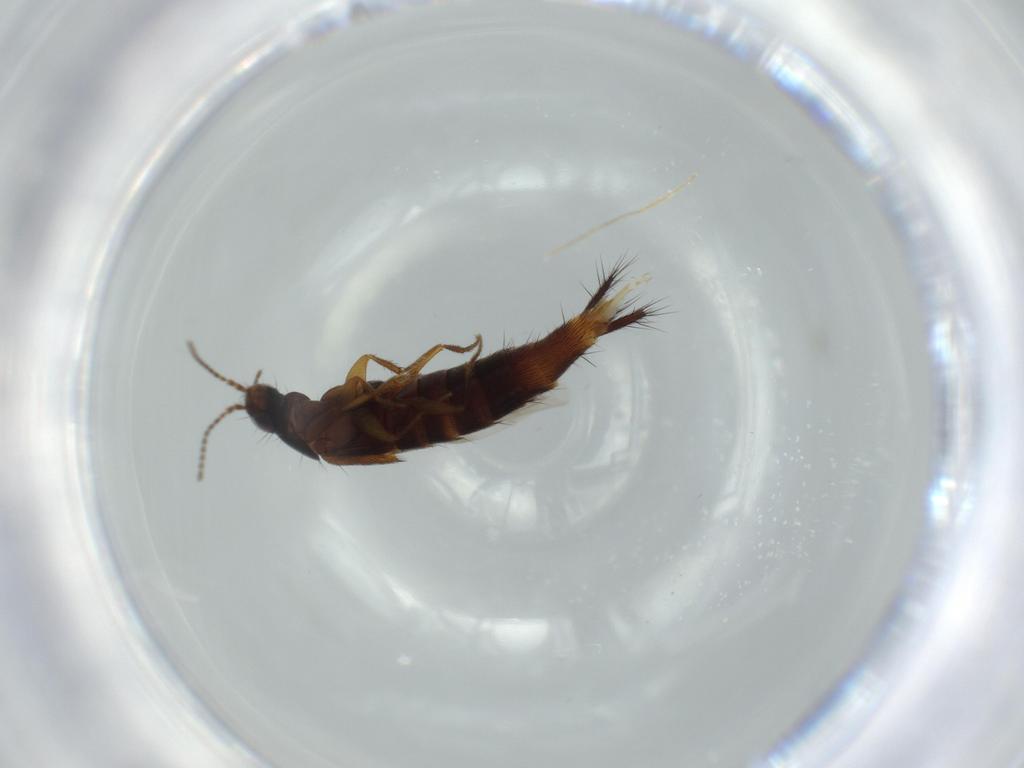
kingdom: Animalia
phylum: Arthropoda
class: Insecta
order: Coleoptera
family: Staphylinidae
